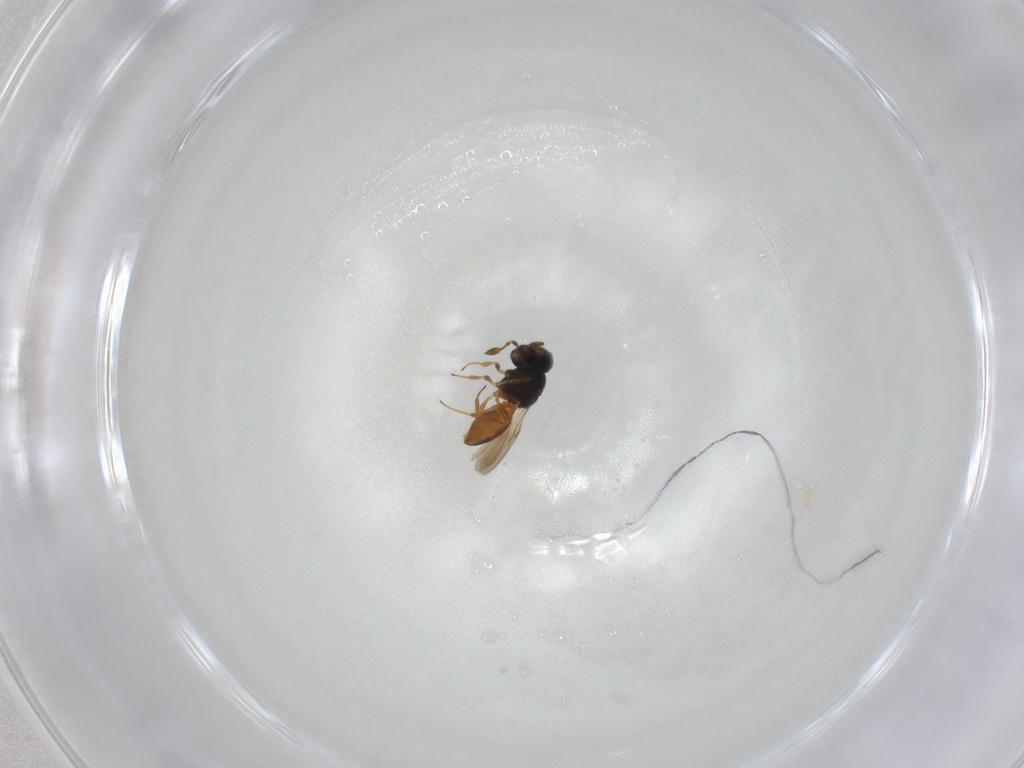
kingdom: Animalia
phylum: Arthropoda
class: Insecta
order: Hymenoptera
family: Scelionidae
